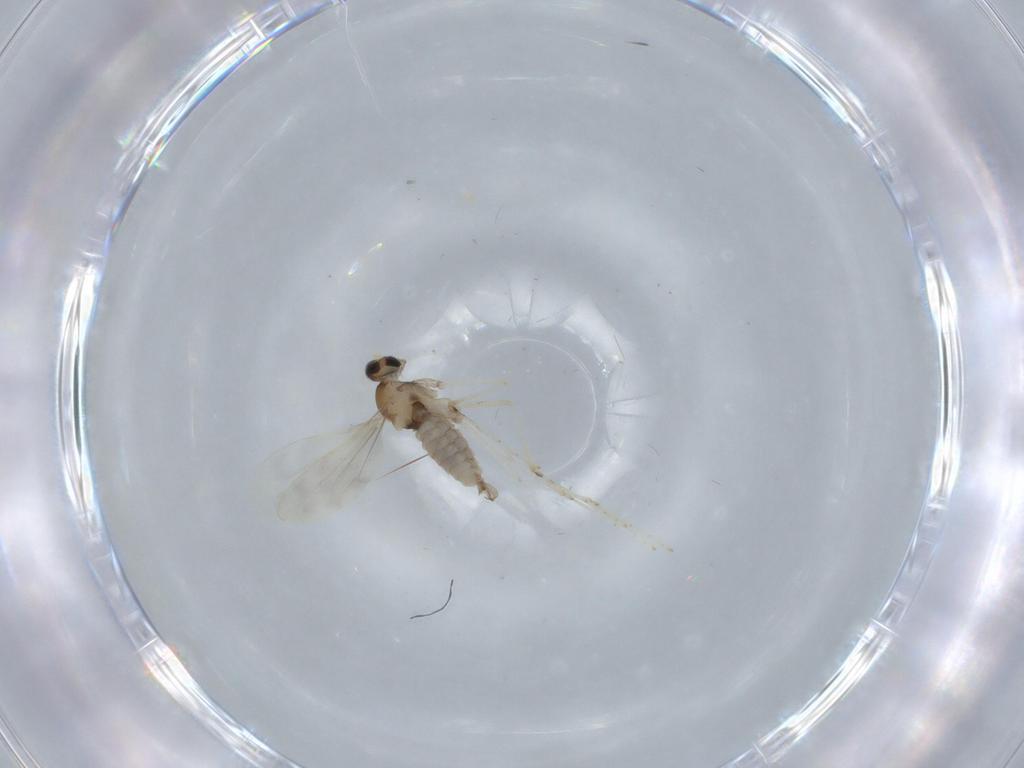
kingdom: Animalia
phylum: Arthropoda
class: Insecta
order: Diptera
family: Cecidomyiidae
